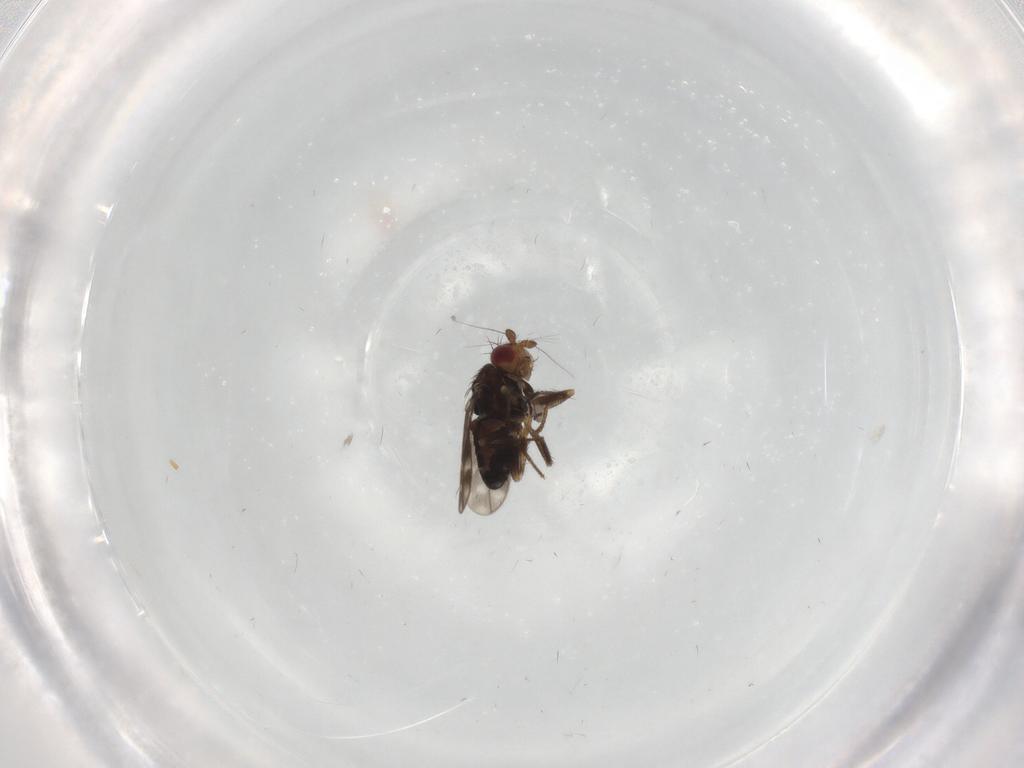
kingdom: Animalia
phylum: Arthropoda
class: Insecta
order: Diptera
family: Sphaeroceridae
